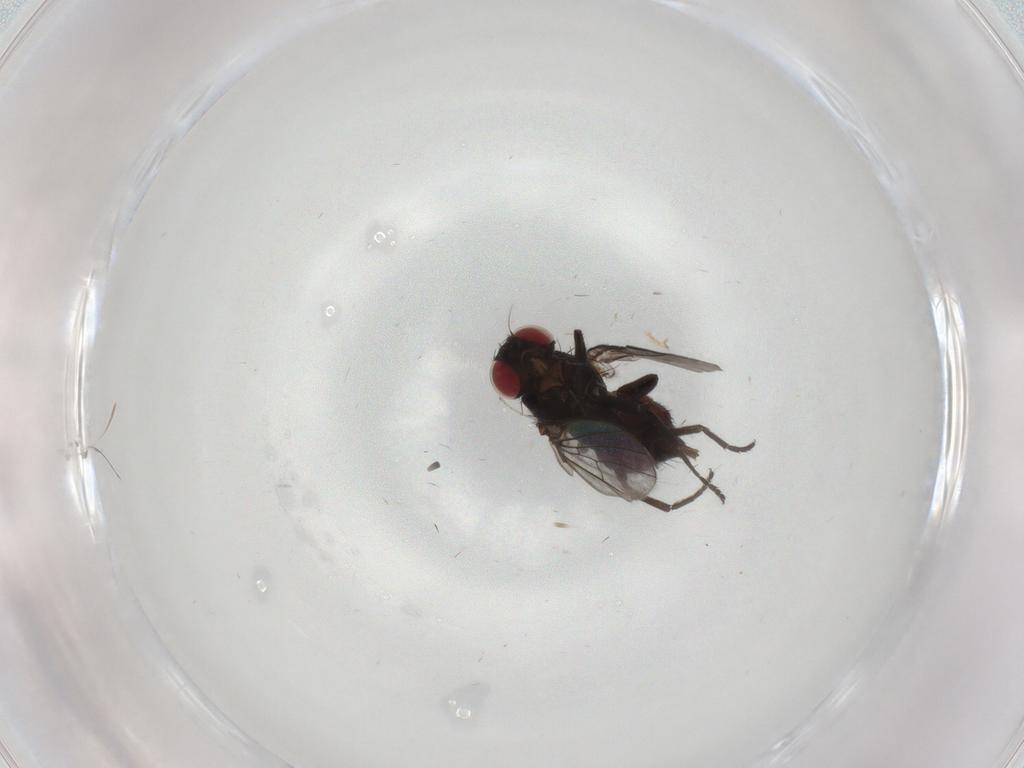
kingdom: Animalia
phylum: Arthropoda
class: Insecta
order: Diptera
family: Agromyzidae
